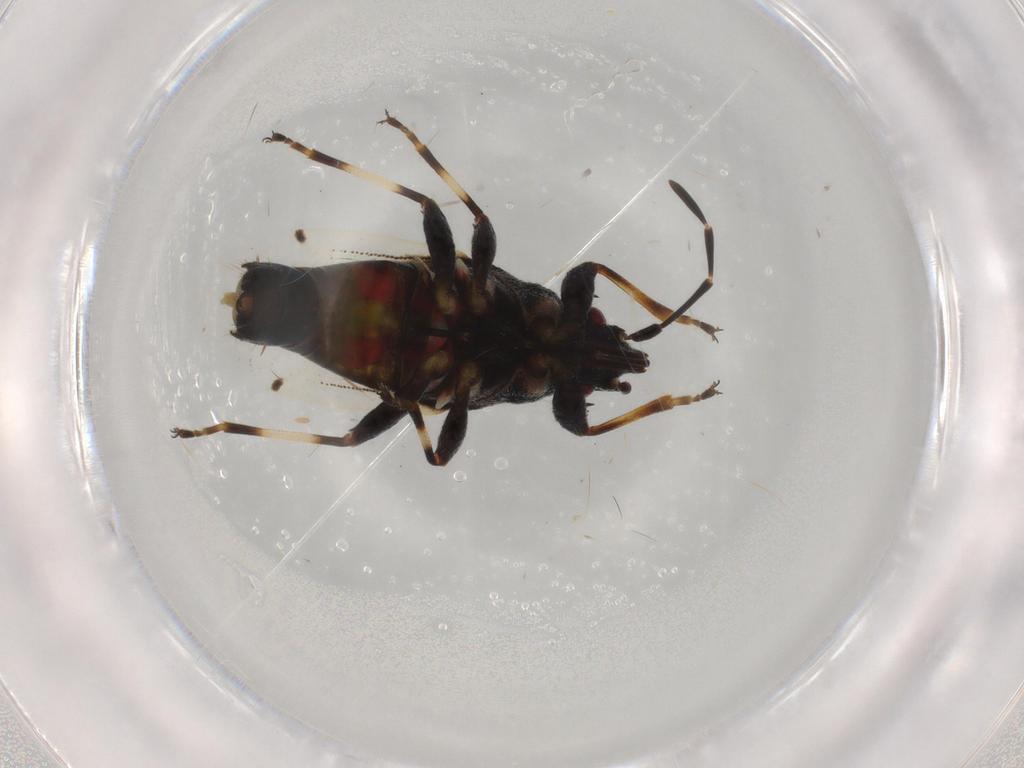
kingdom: Animalia
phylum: Arthropoda
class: Insecta
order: Hemiptera
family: Oxycarenidae
